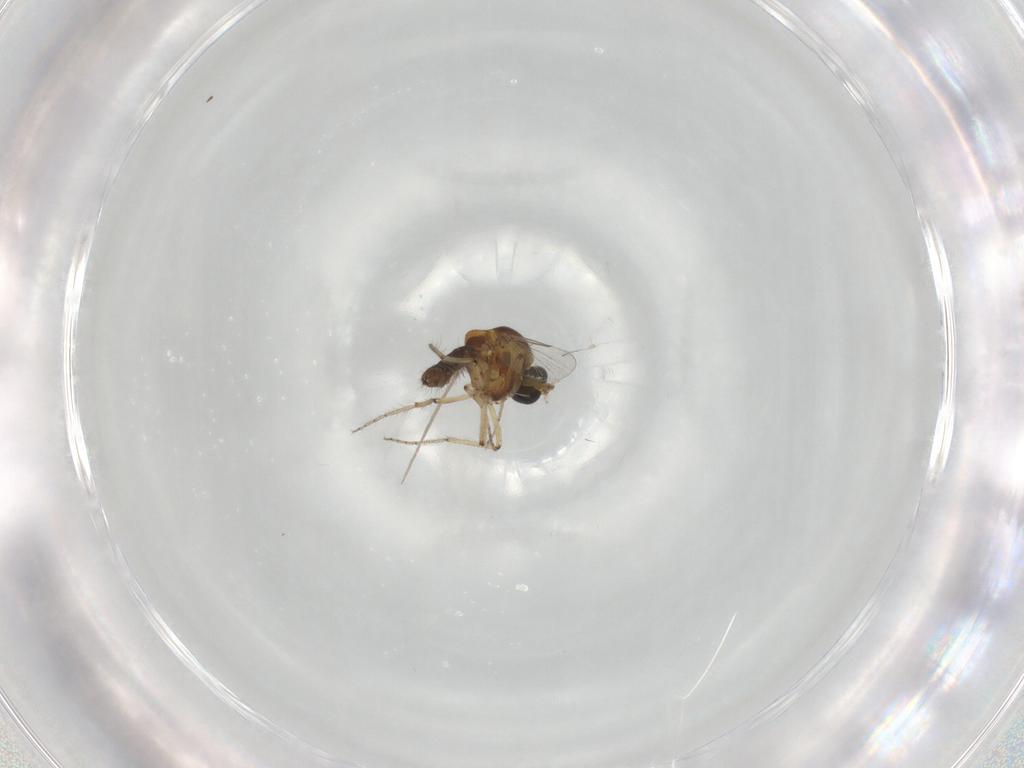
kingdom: Animalia
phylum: Arthropoda
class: Insecta
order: Diptera
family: Ceratopogonidae
